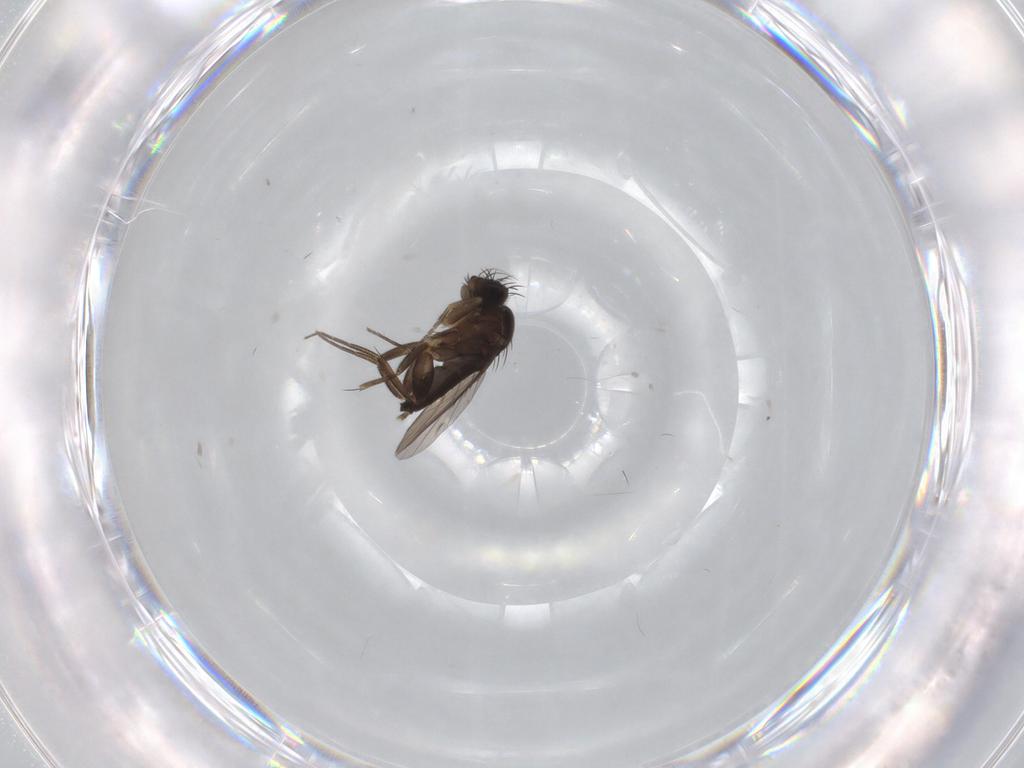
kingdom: Animalia
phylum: Arthropoda
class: Insecta
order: Diptera
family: Phoridae
